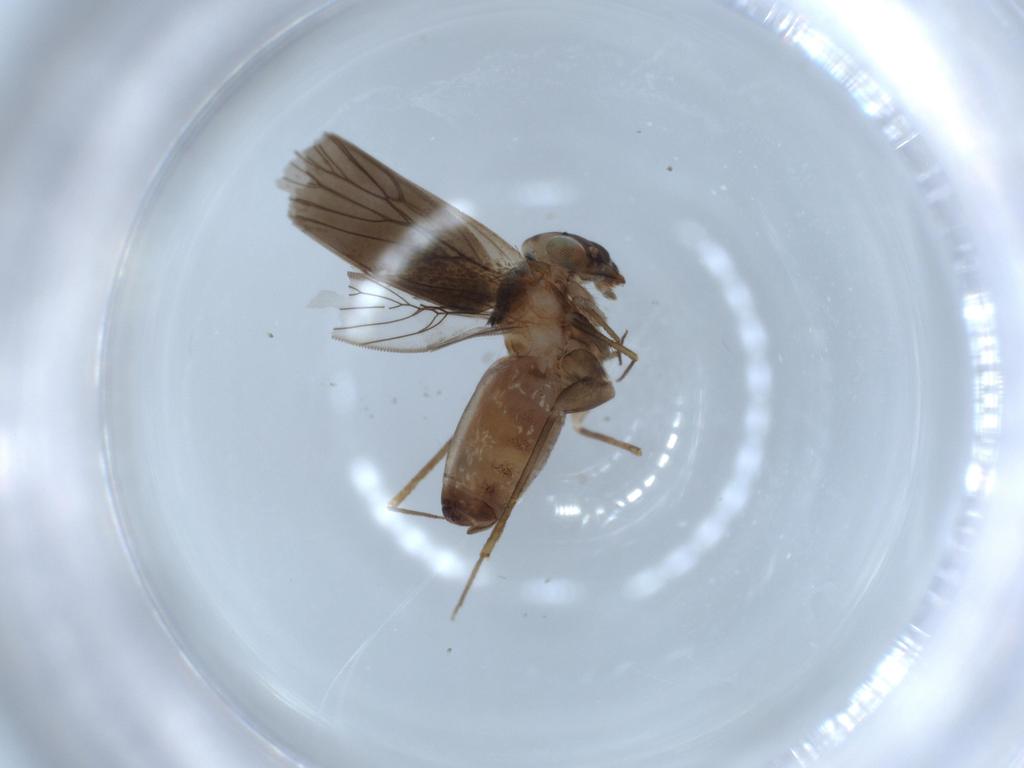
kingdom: Animalia
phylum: Arthropoda
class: Insecta
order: Psocodea
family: Lepidopsocidae
